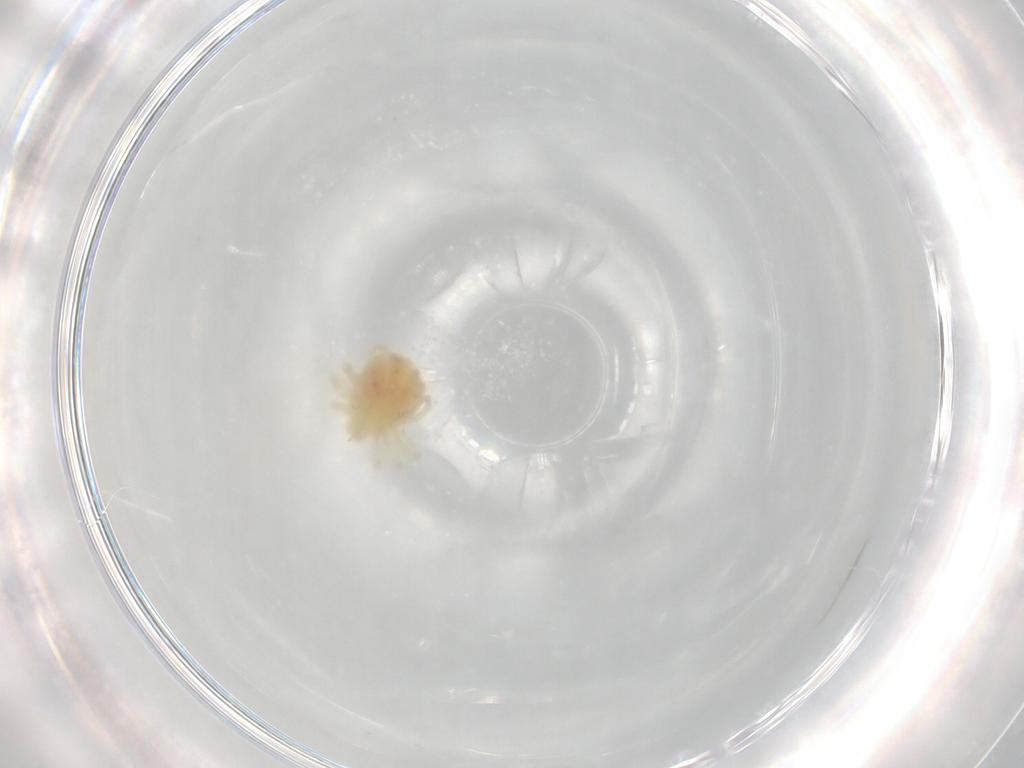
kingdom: Animalia
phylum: Arthropoda
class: Arachnida
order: Trombidiformes
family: Anystidae
